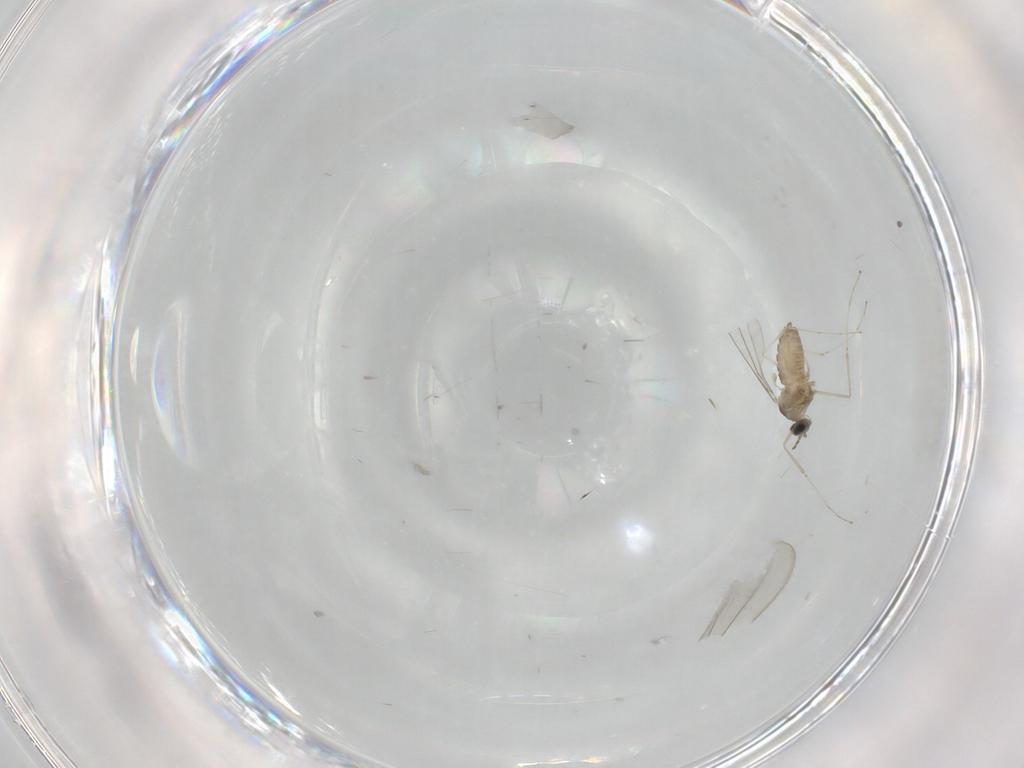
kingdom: Animalia
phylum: Arthropoda
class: Insecta
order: Diptera
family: Cecidomyiidae
